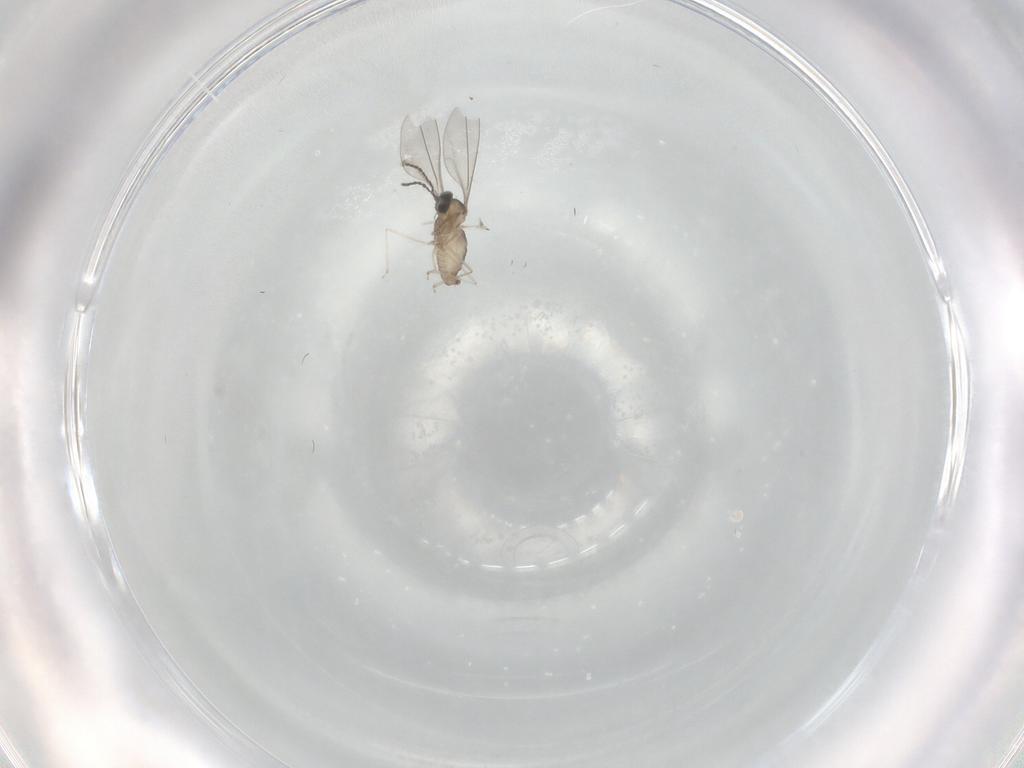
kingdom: Animalia
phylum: Arthropoda
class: Insecta
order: Diptera
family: Cecidomyiidae
